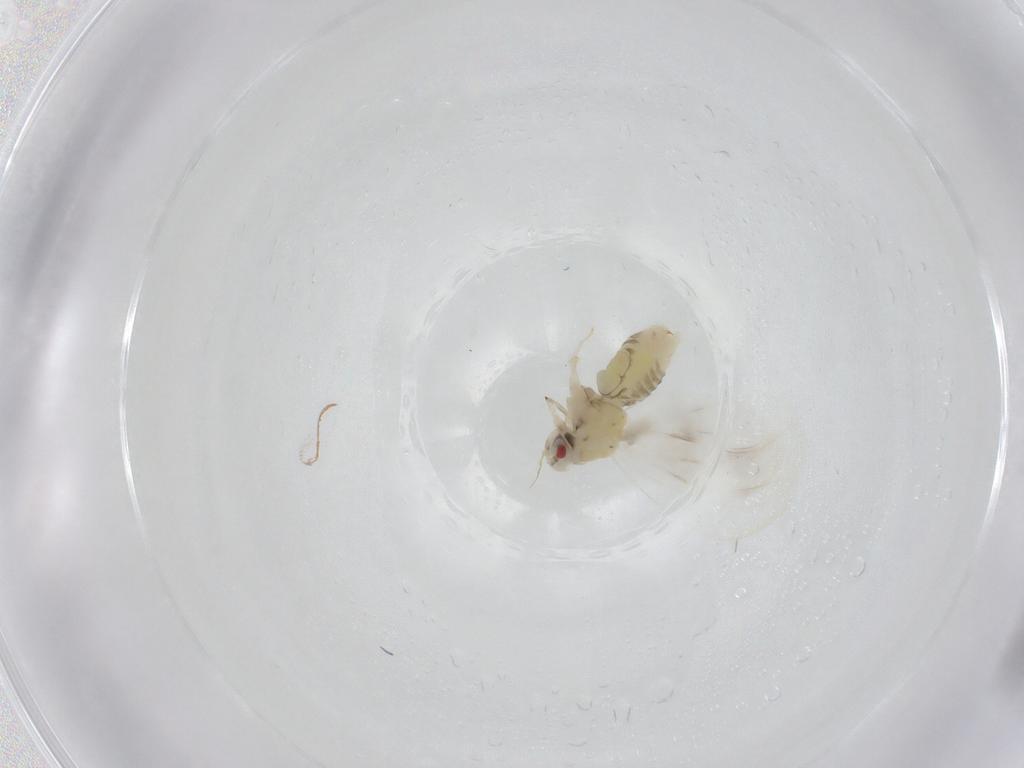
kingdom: Animalia
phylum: Arthropoda
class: Insecta
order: Hemiptera
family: Aleyrodidae
